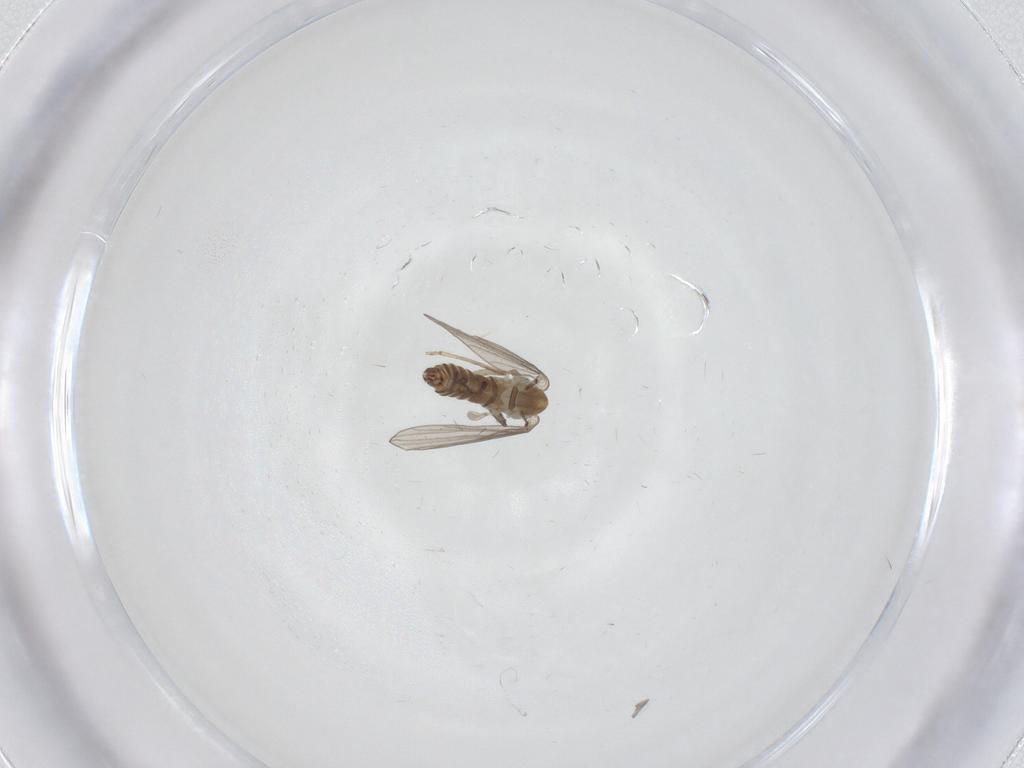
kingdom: Animalia
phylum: Arthropoda
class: Insecta
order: Diptera
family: Psychodidae
